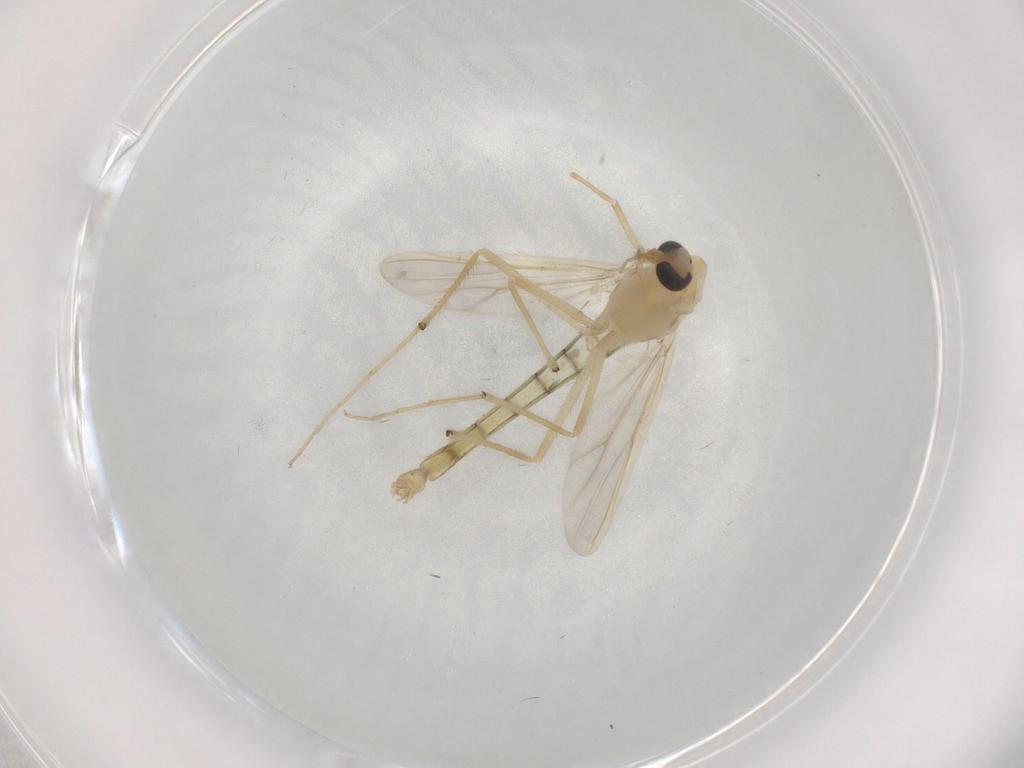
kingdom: Animalia
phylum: Arthropoda
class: Insecta
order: Diptera
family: Chironomidae
